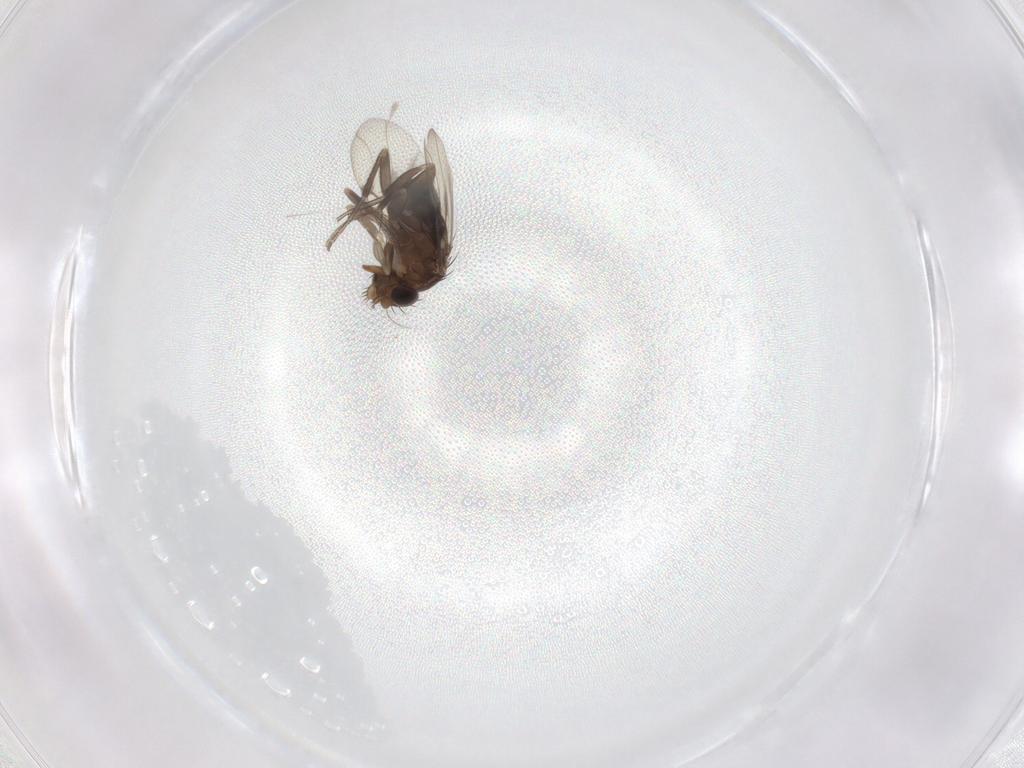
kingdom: Animalia
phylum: Arthropoda
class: Insecta
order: Diptera
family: Phoridae
